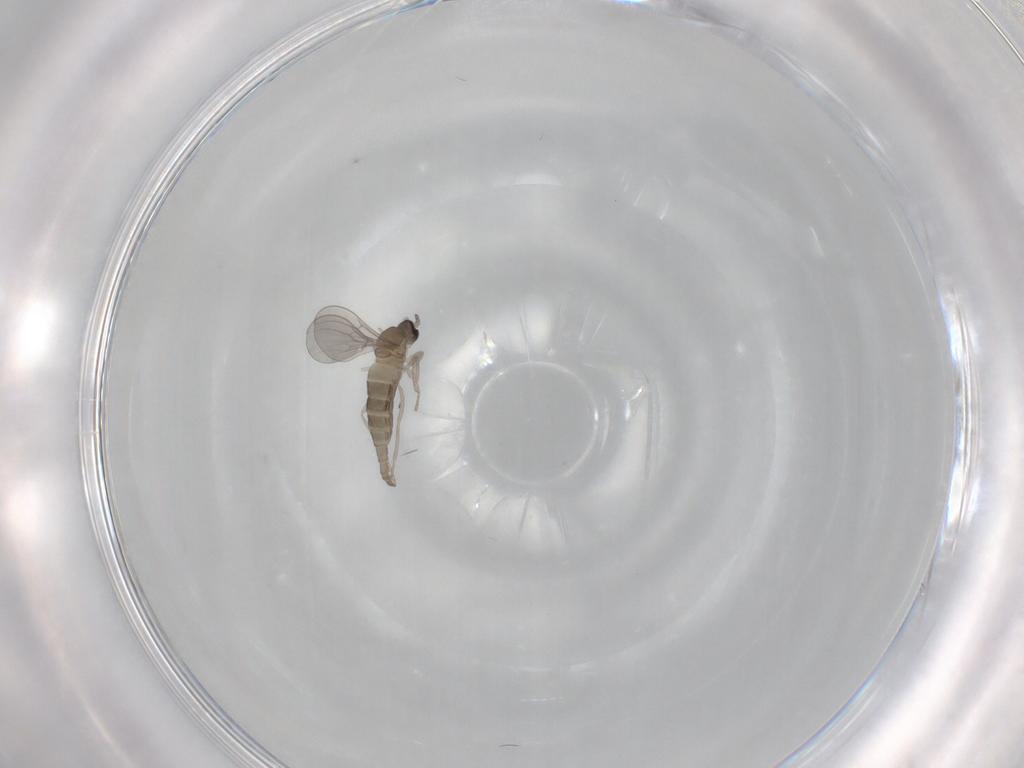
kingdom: Animalia
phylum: Arthropoda
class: Insecta
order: Diptera
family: Cecidomyiidae
